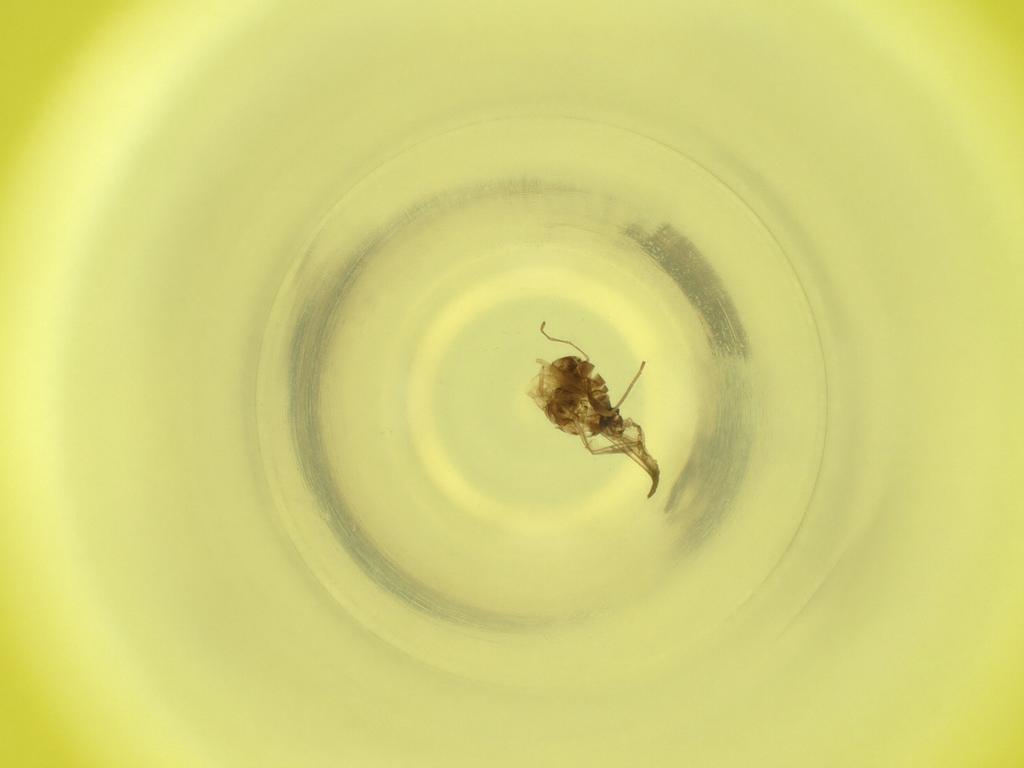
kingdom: Animalia
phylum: Arthropoda
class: Insecta
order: Diptera
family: Cecidomyiidae
